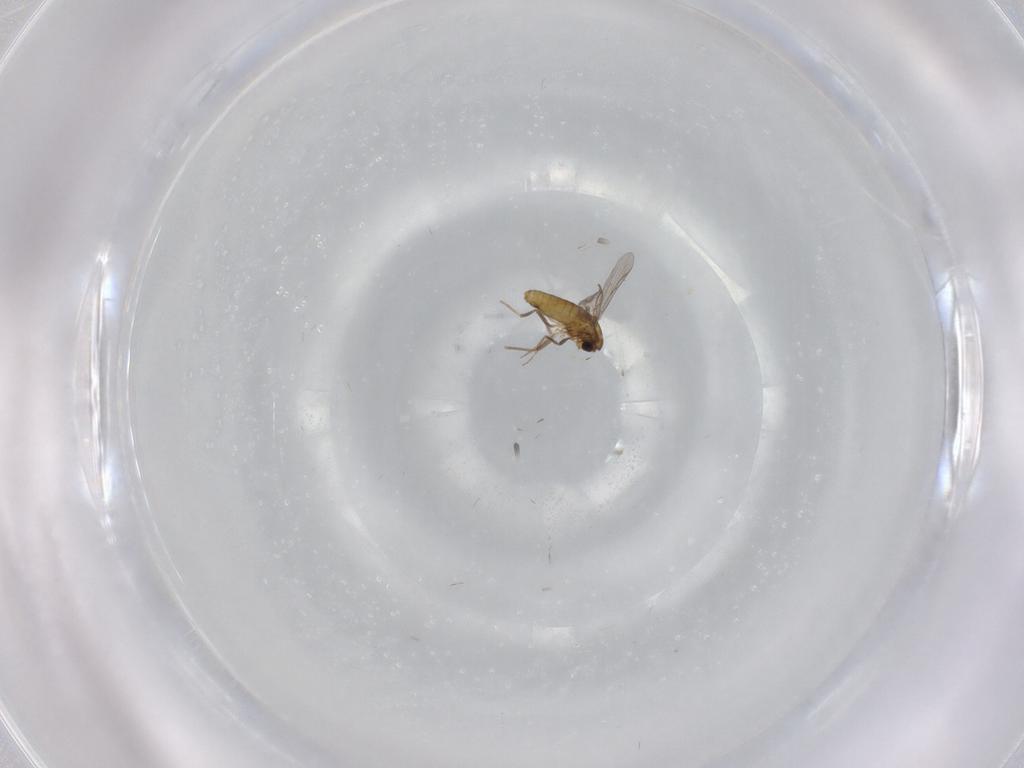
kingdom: Animalia
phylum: Arthropoda
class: Insecta
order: Diptera
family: Chironomidae
